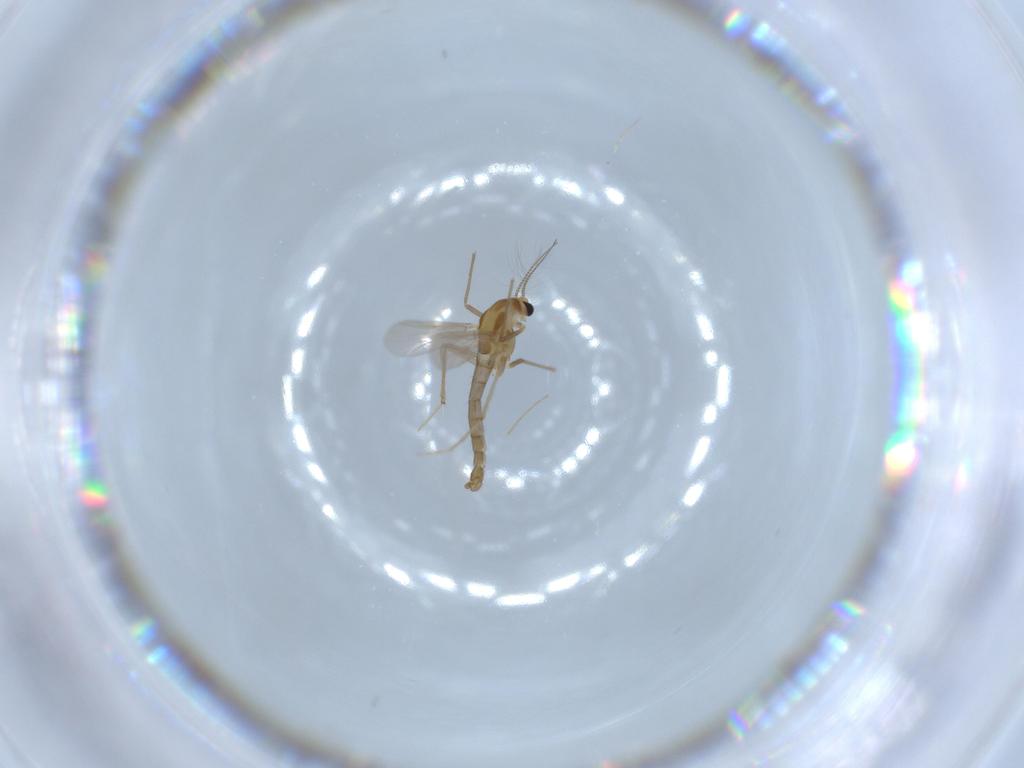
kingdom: Animalia
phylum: Arthropoda
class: Insecta
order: Diptera
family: Chironomidae
